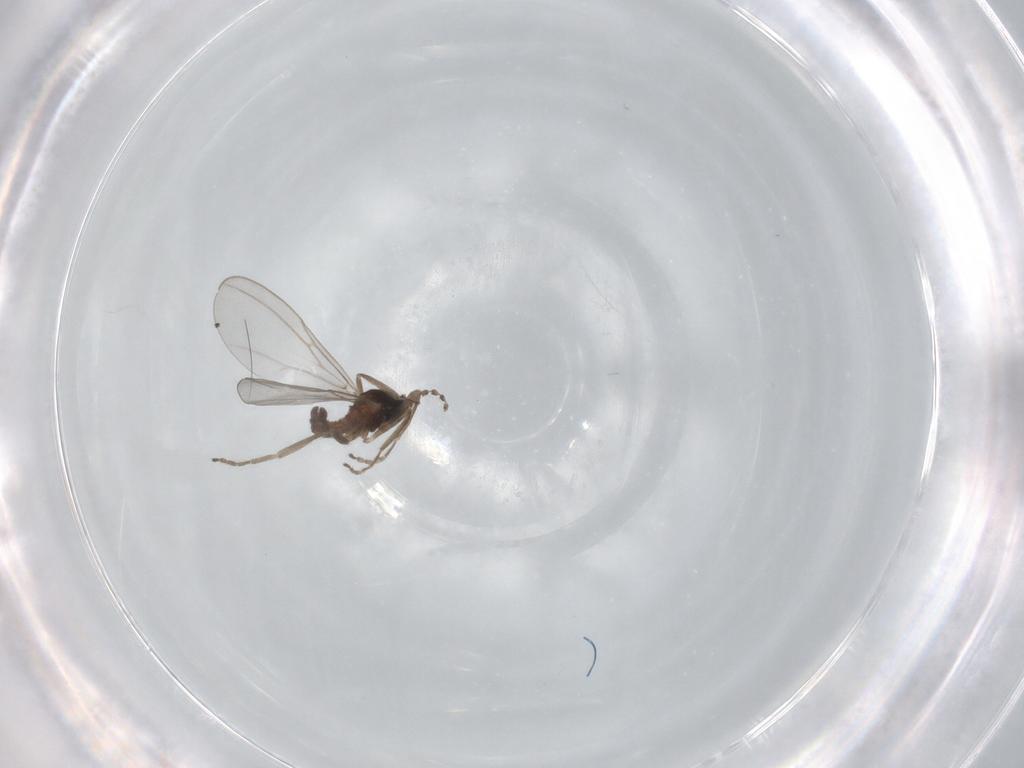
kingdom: Animalia
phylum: Arthropoda
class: Insecta
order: Diptera
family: Cecidomyiidae
